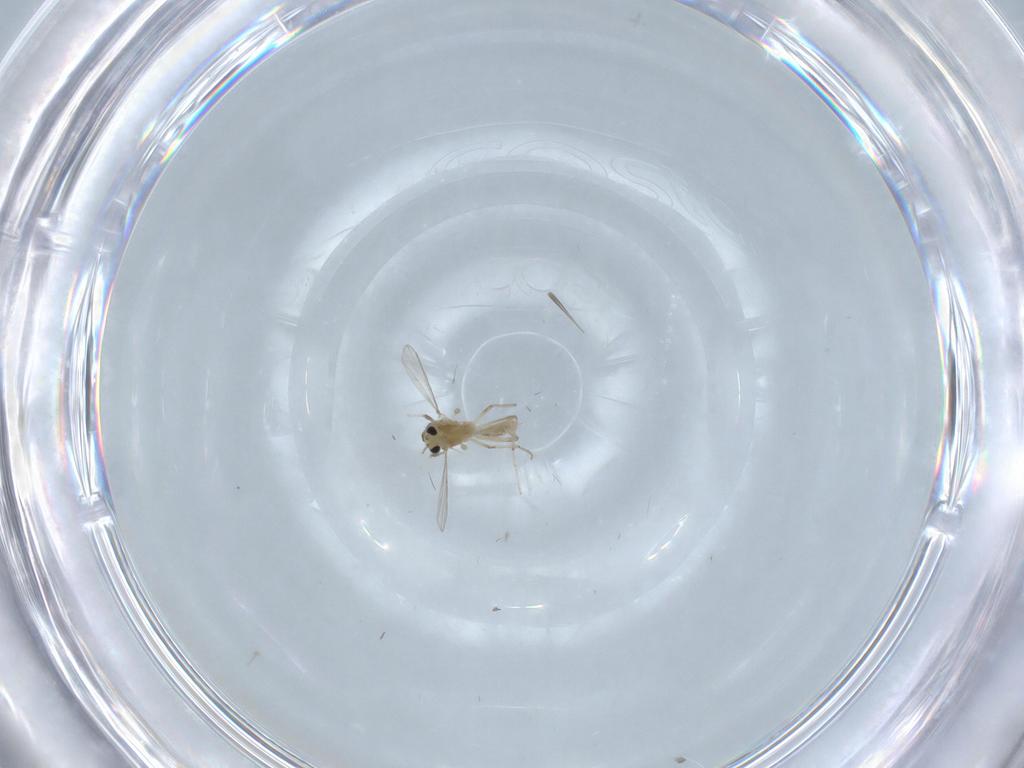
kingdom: Animalia
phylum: Arthropoda
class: Insecta
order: Diptera
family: Chironomidae
